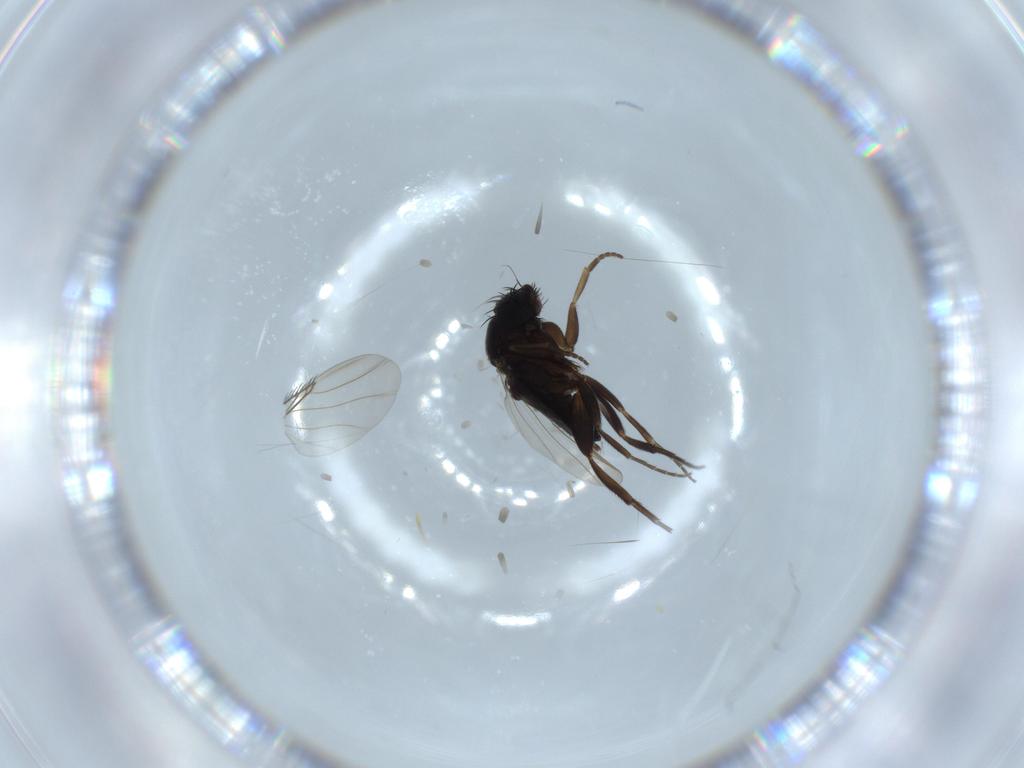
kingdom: Animalia
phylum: Arthropoda
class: Insecta
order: Diptera
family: Phoridae
